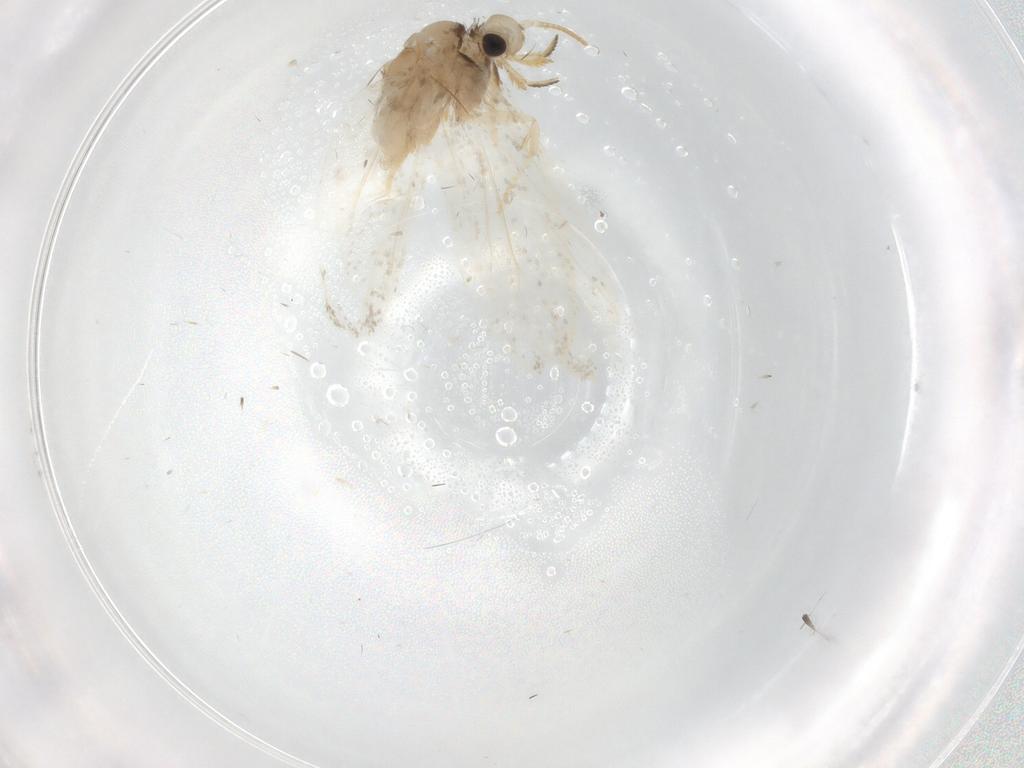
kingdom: Animalia
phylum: Arthropoda
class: Insecta
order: Lepidoptera
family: Psychidae
